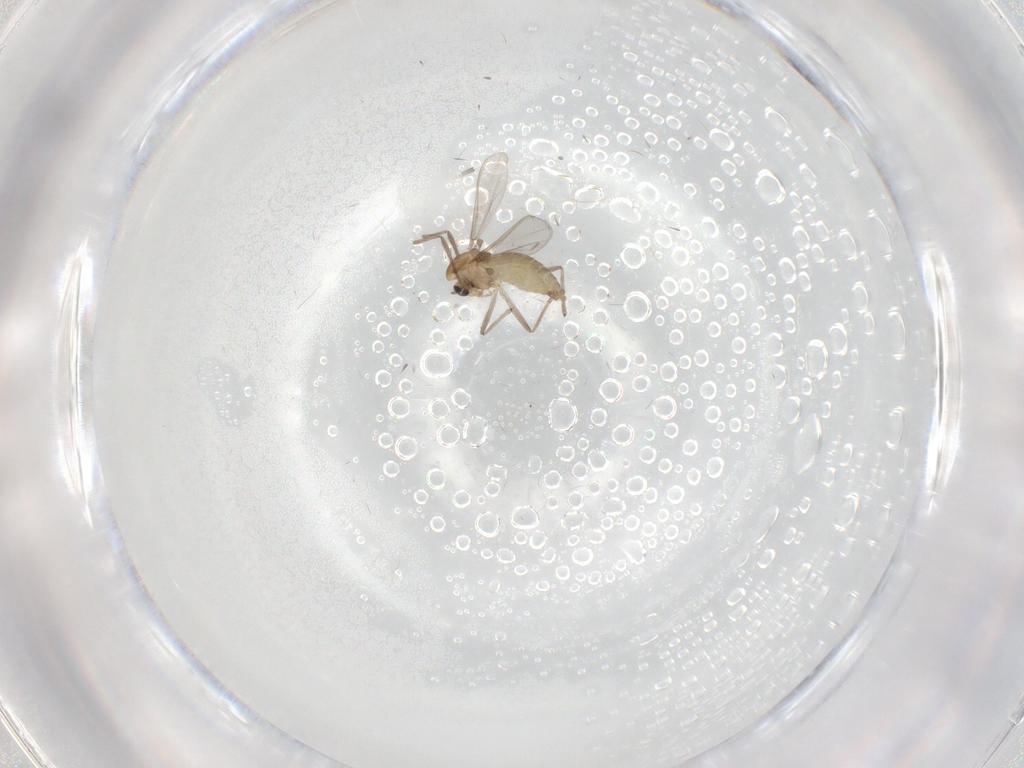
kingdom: Animalia
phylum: Arthropoda
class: Insecta
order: Diptera
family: Chironomidae
